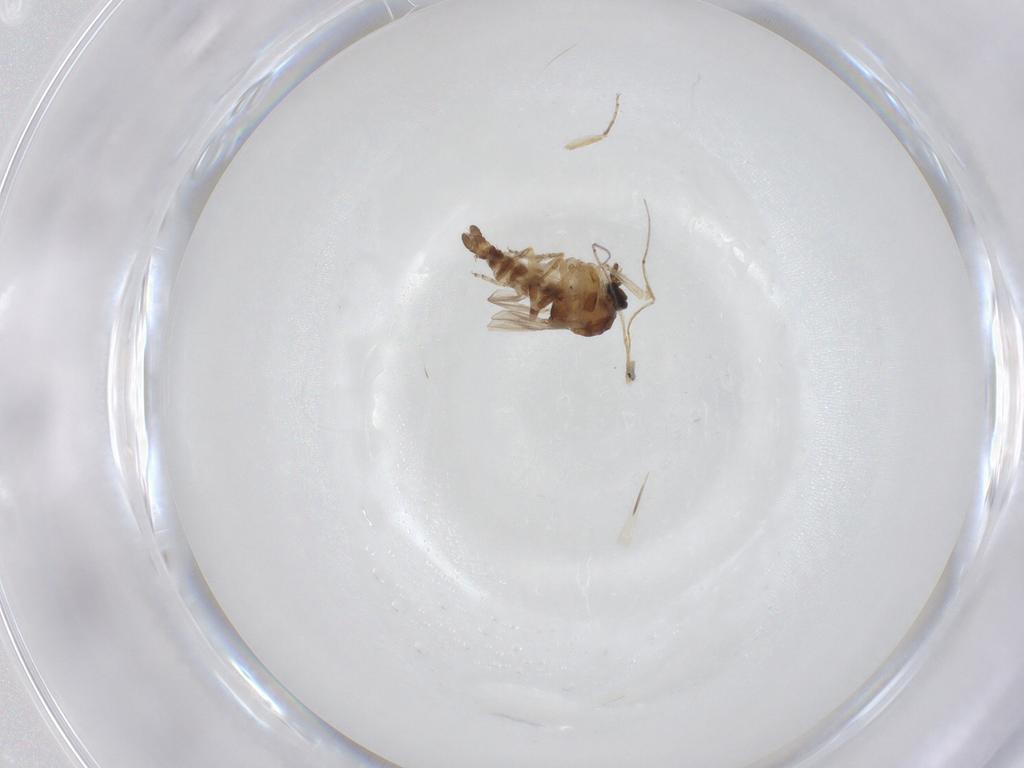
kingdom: Animalia
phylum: Arthropoda
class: Insecta
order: Diptera
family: Ceratopogonidae
